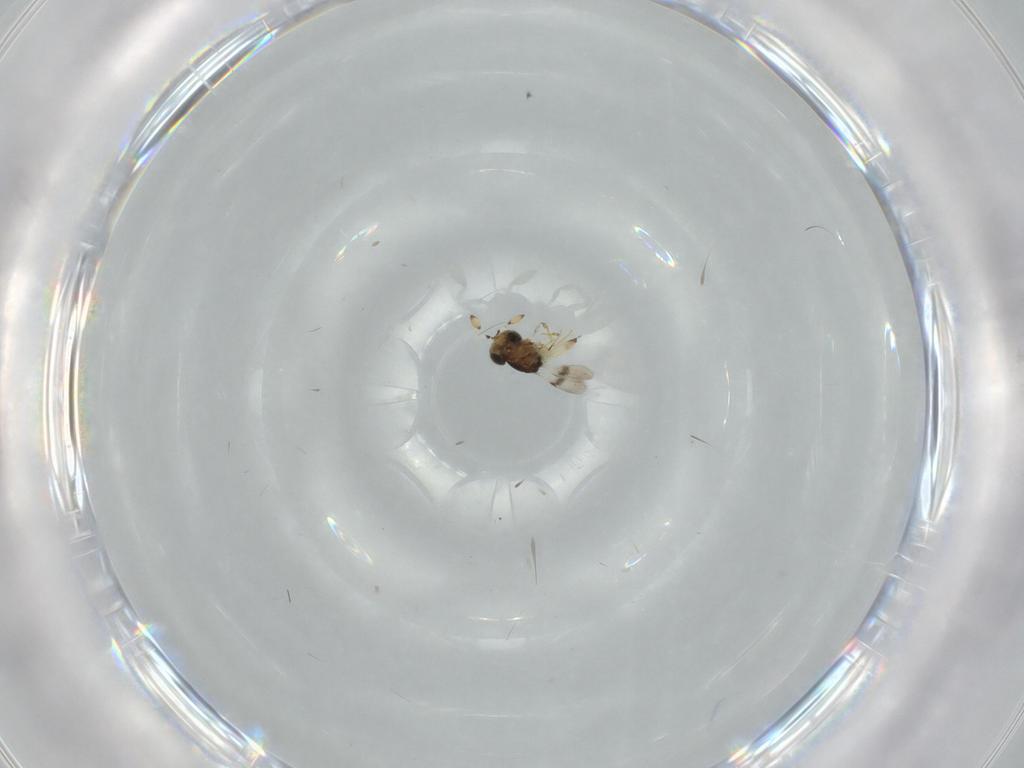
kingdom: Animalia
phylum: Arthropoda
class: Insecta
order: Hymenoptera
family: Scelionidae
